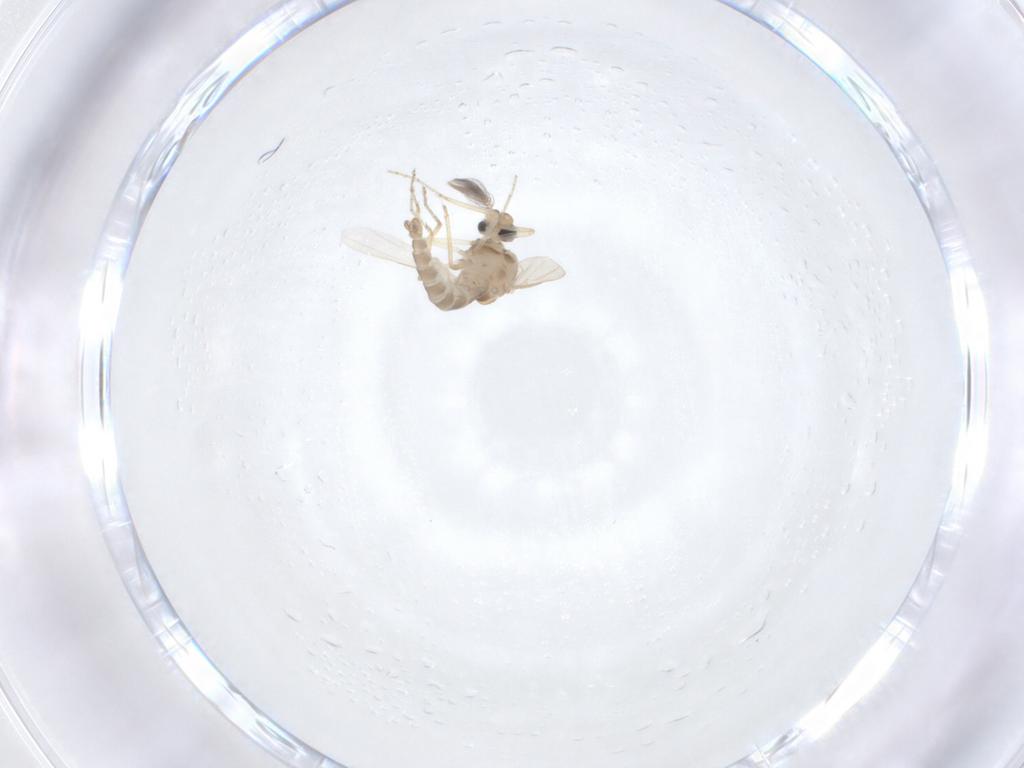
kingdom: Animalia
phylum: Arthropoda
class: Insecta
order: Diptera
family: Ceratopogonidae
